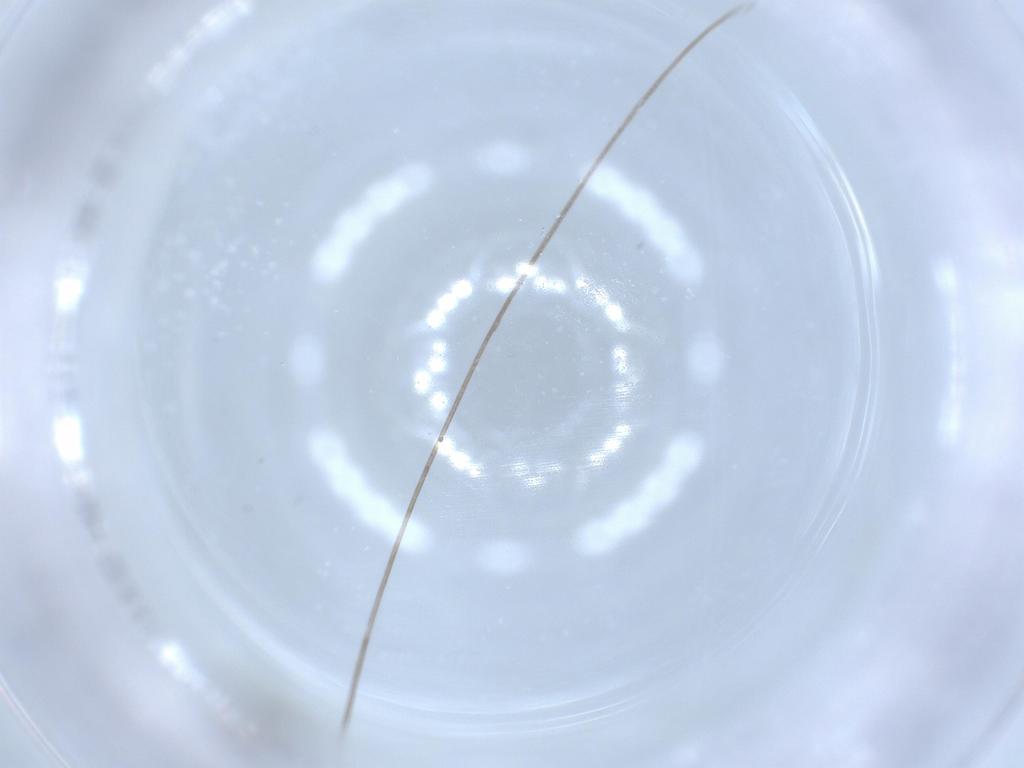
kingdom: Animalia
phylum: Arthropoda
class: Insecta
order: Hymenoptera
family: Scelionidae
